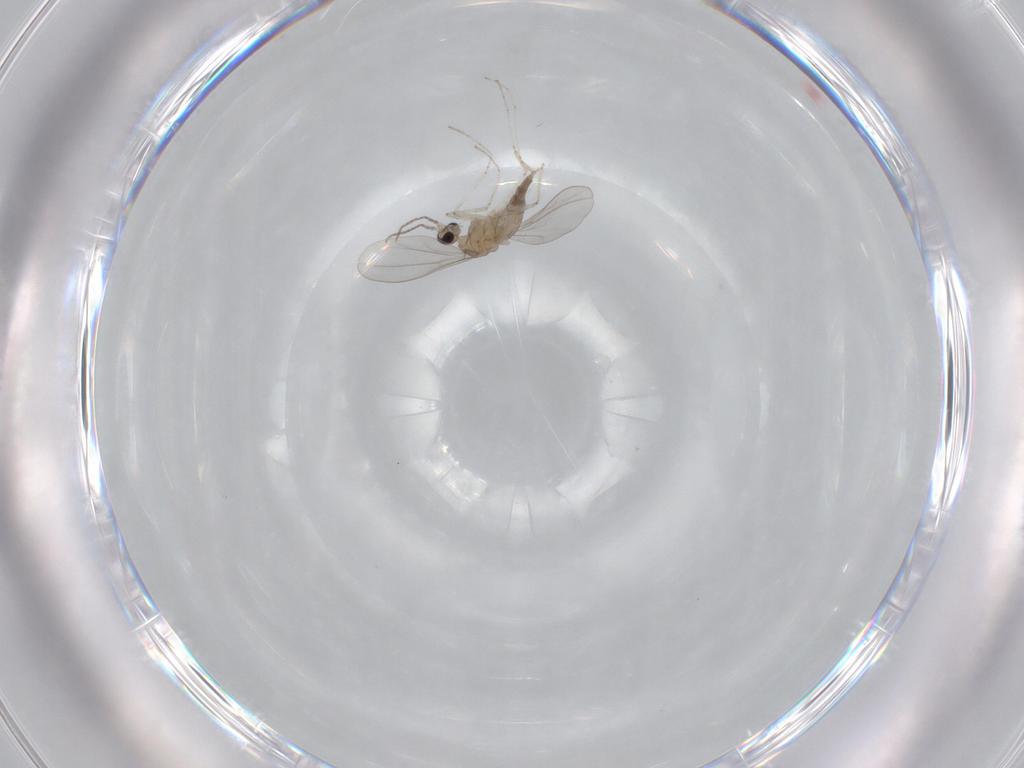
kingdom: Animalia
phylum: Arthropoda
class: Insecta
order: Diptera
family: Cecidomyiidae
